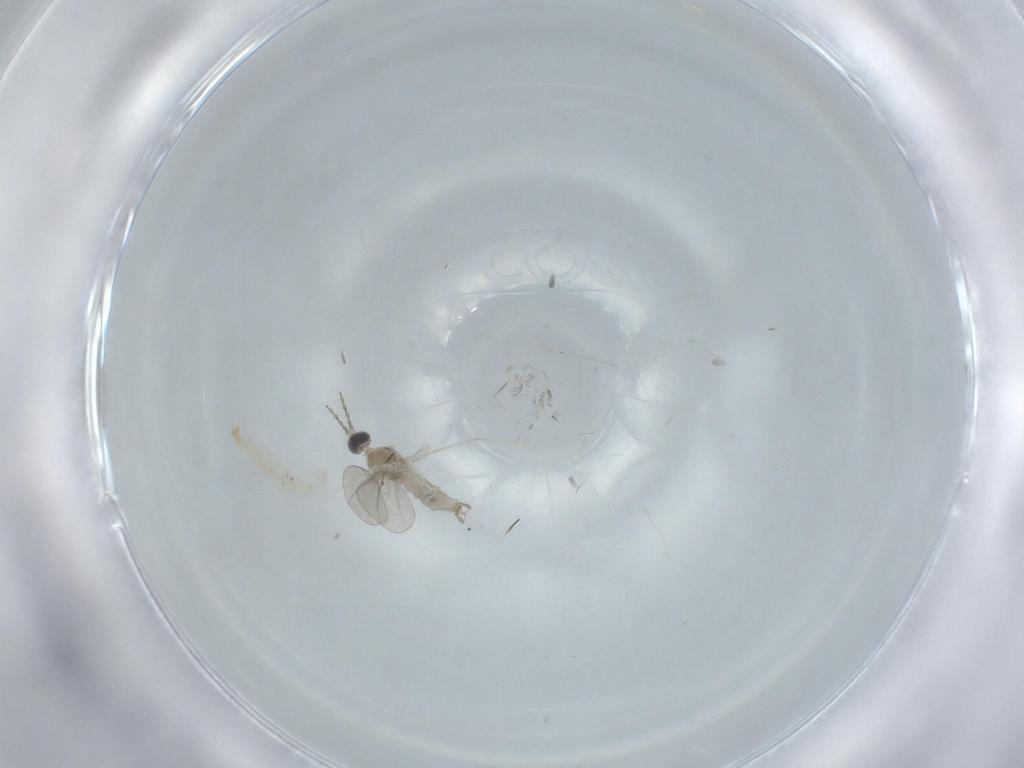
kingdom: Animalia
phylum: Arthropoda
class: Insecta
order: Diptera
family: Cecidomyiidae
